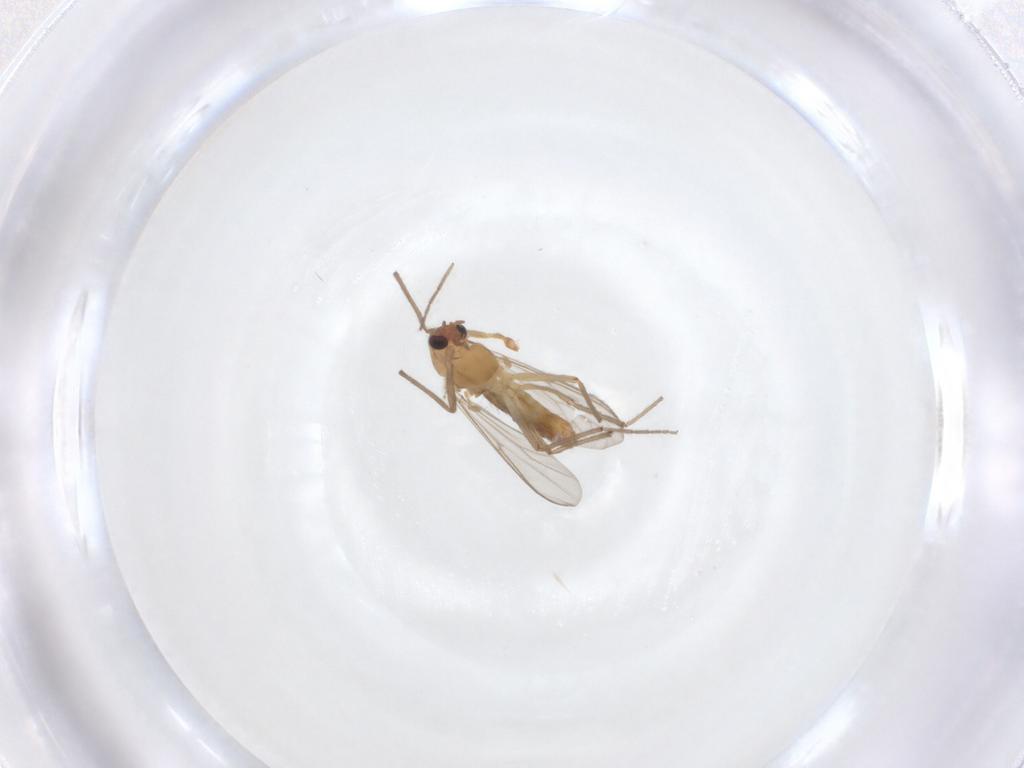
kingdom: Animalia
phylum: Arthropoda
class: Insecta
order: Diptera
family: Chironomidae
